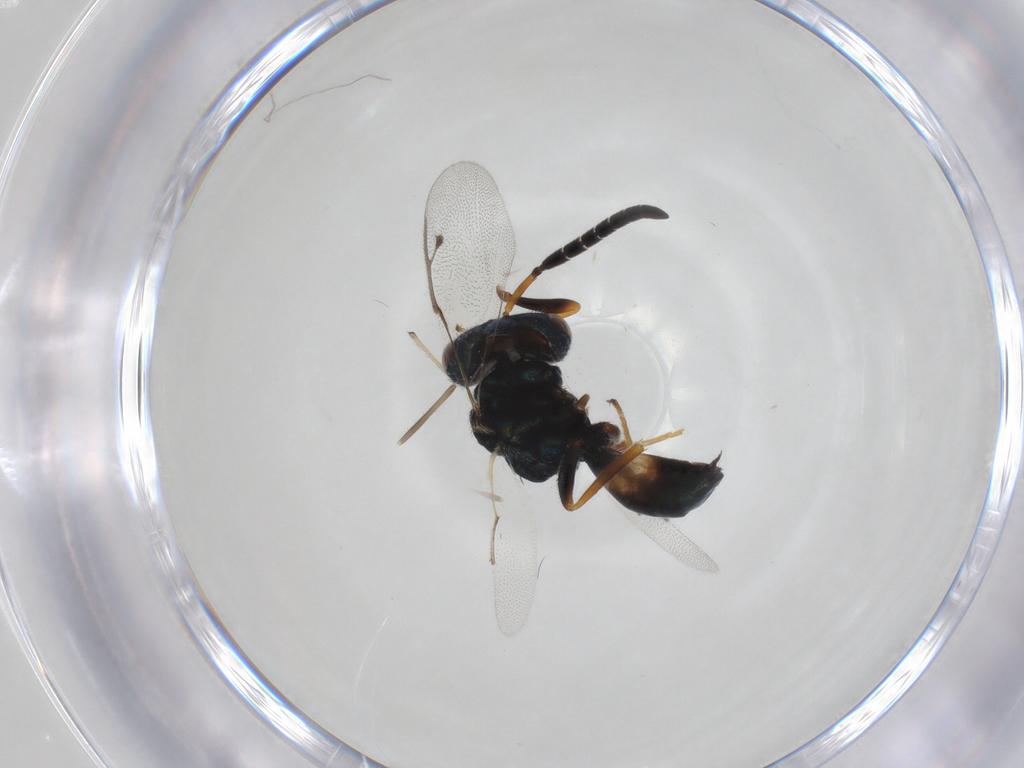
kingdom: Animalia
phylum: Arthropoda
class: Insecta
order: Hymenoptera
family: Pteromalidae
